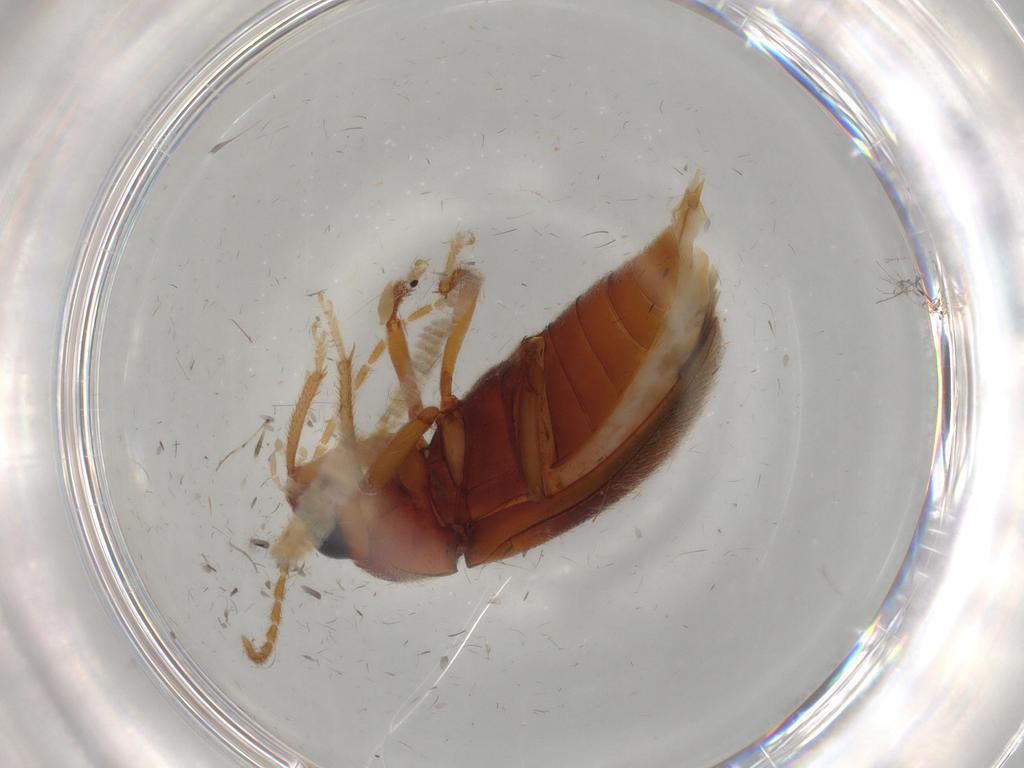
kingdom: Animalia
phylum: Arthropoda
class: Insecta
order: Coleoptera
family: Ptilodactylidae
